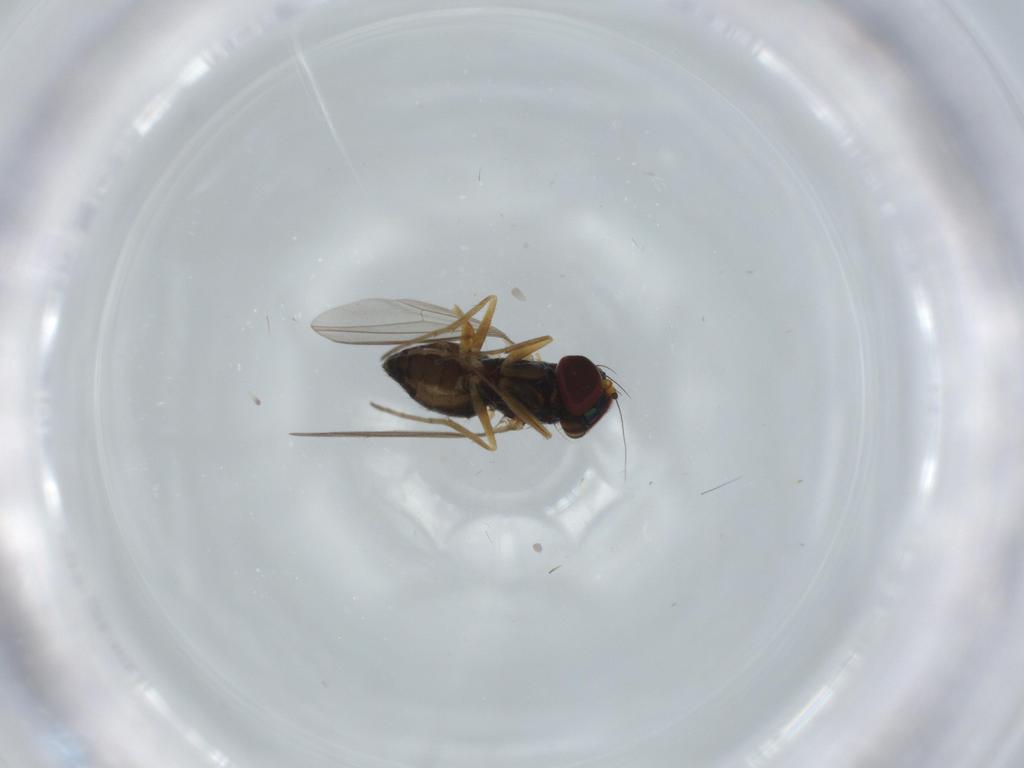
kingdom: Animalia
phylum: Arthropoda
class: Insecta
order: Diptera
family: Dolichopodidae
